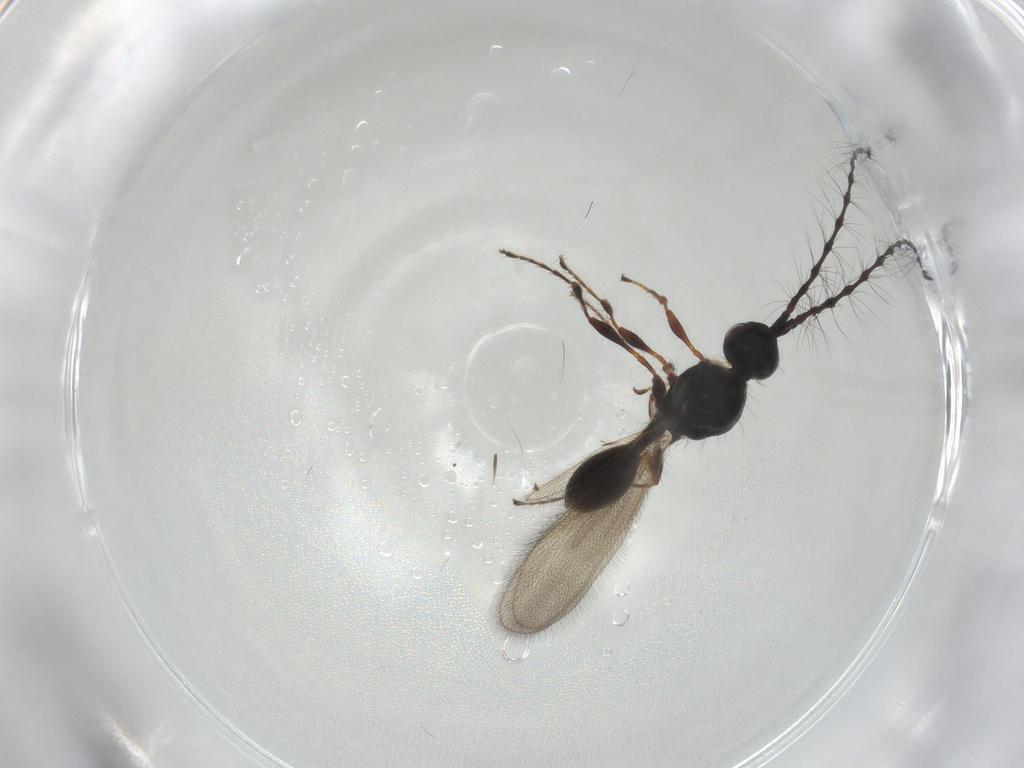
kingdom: Animalia
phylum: Arthropoda
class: Insecta
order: Hymenoptera
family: Diapriidae
